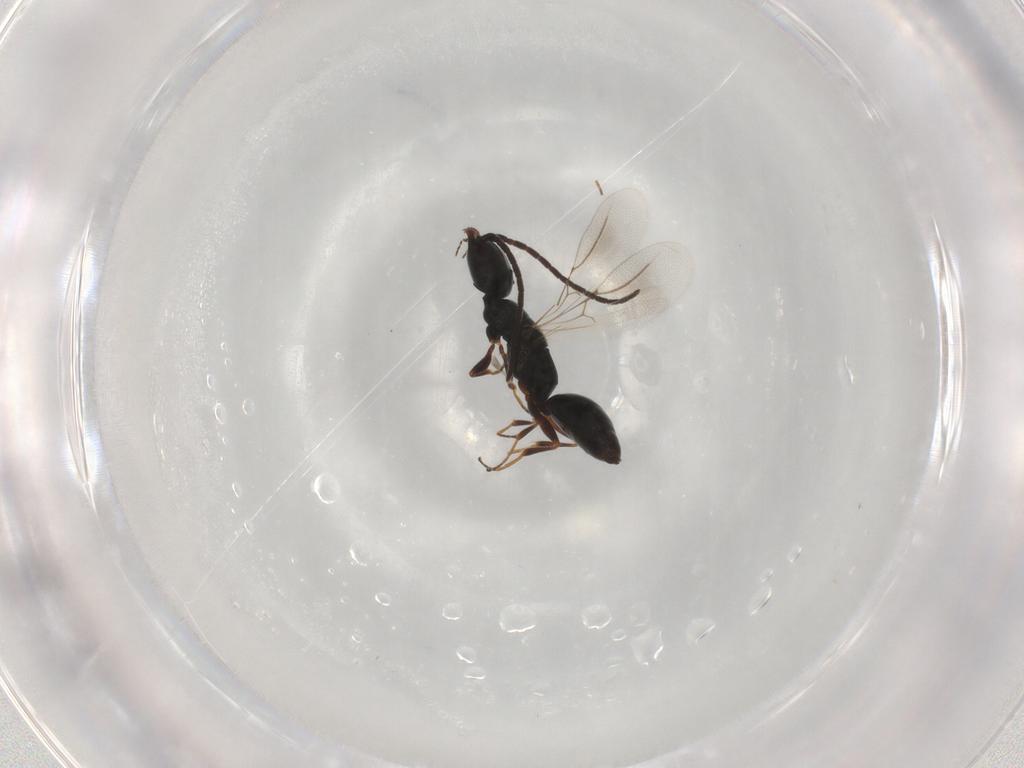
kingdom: Animalia
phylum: Arthropoda
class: Insecta
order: Hymenoptera
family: Bethylidae
